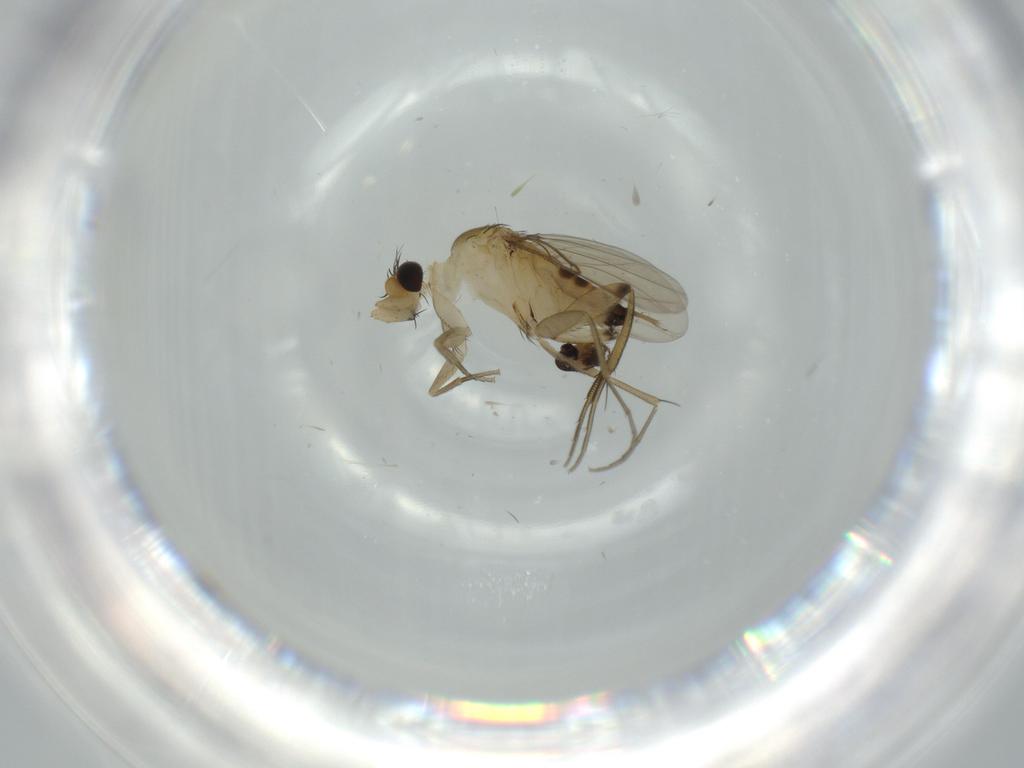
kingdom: Animalia
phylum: Arthropoda
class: Insecta
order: Diptera
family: Phoridae
